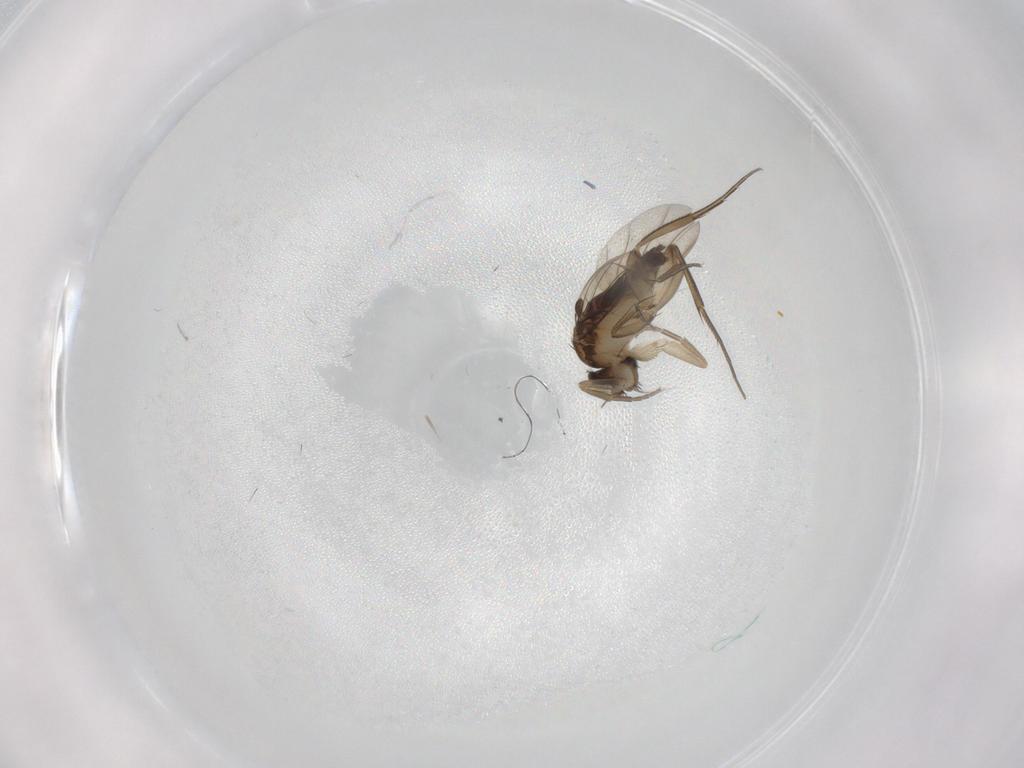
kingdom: Animalia
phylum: Arthropoda
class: Insecta
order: Diptera
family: Phoridae
